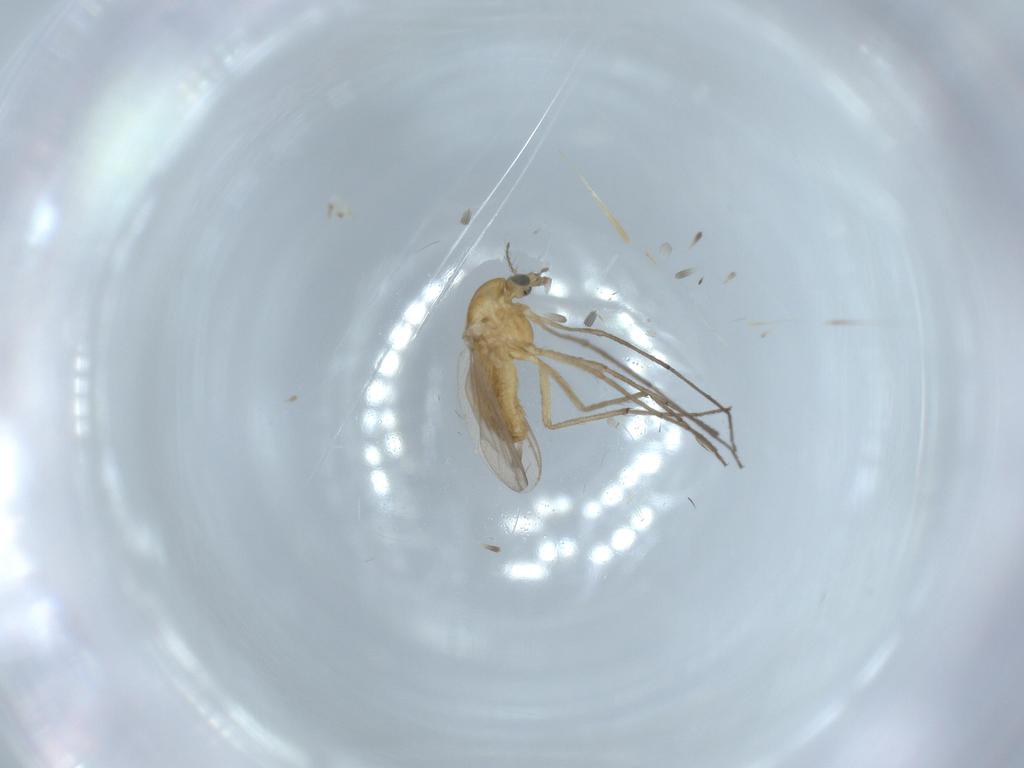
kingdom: Animalia
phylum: Arthropoda
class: Insecta
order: Diptera
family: Chironomidae
